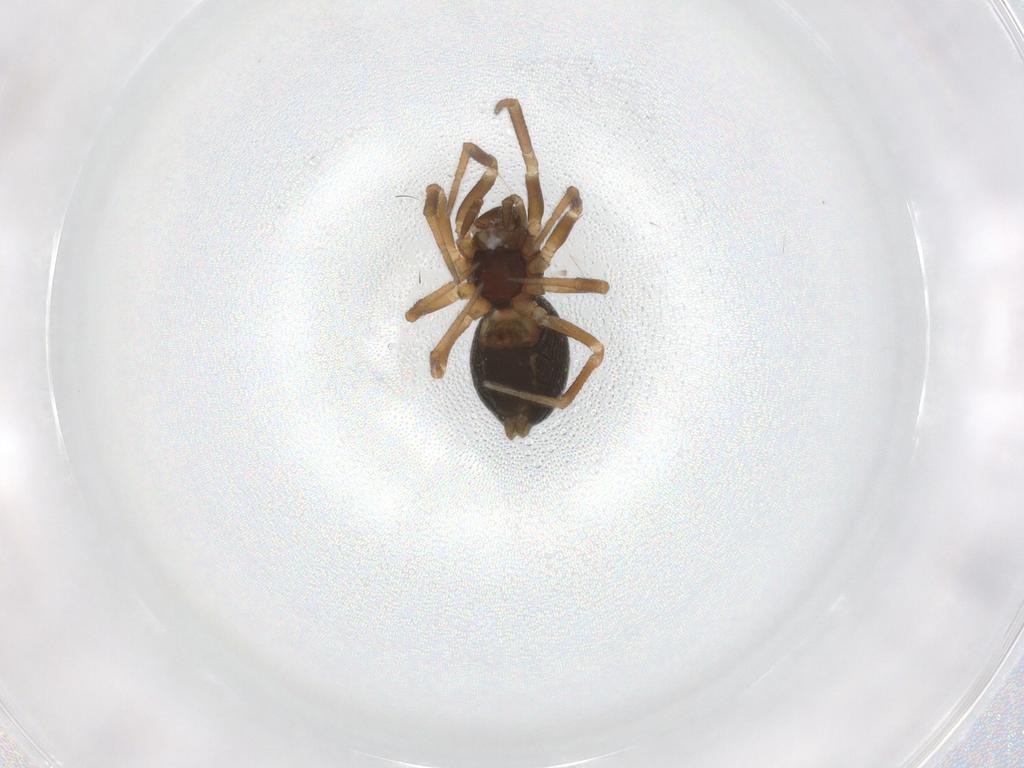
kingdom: Animalia
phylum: Arthropoda
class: Arachnida
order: Araneae
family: Linyphiidae
